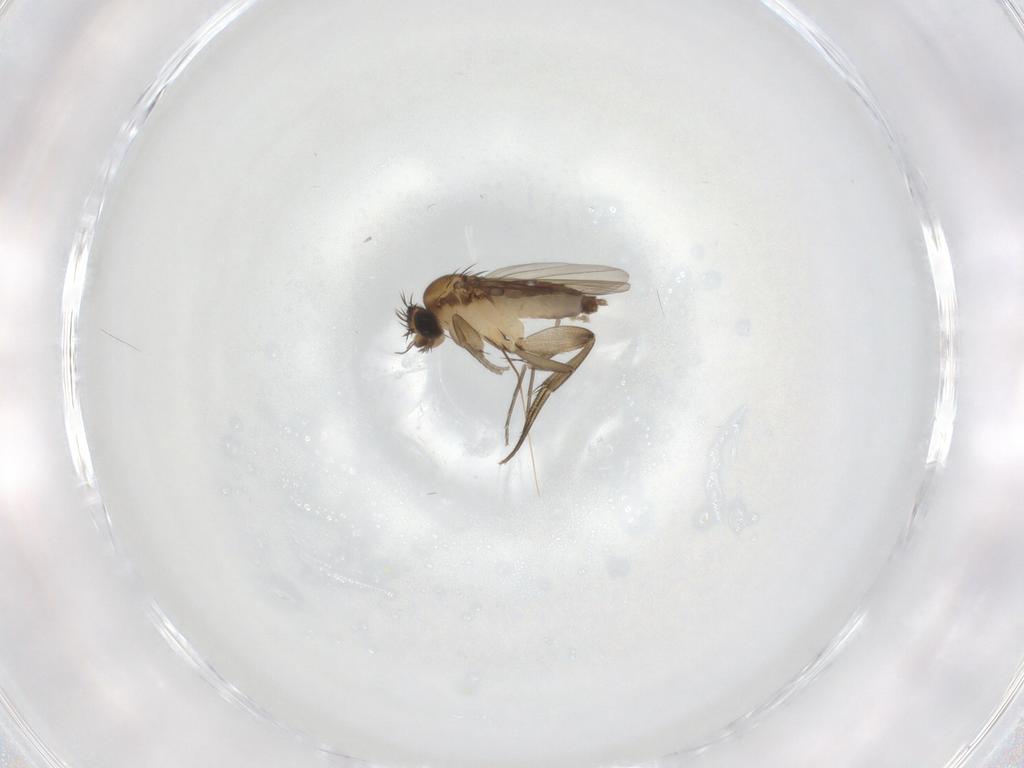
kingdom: Animalia
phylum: Arthropoda
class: Insecta
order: Diptera
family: Phoridae
